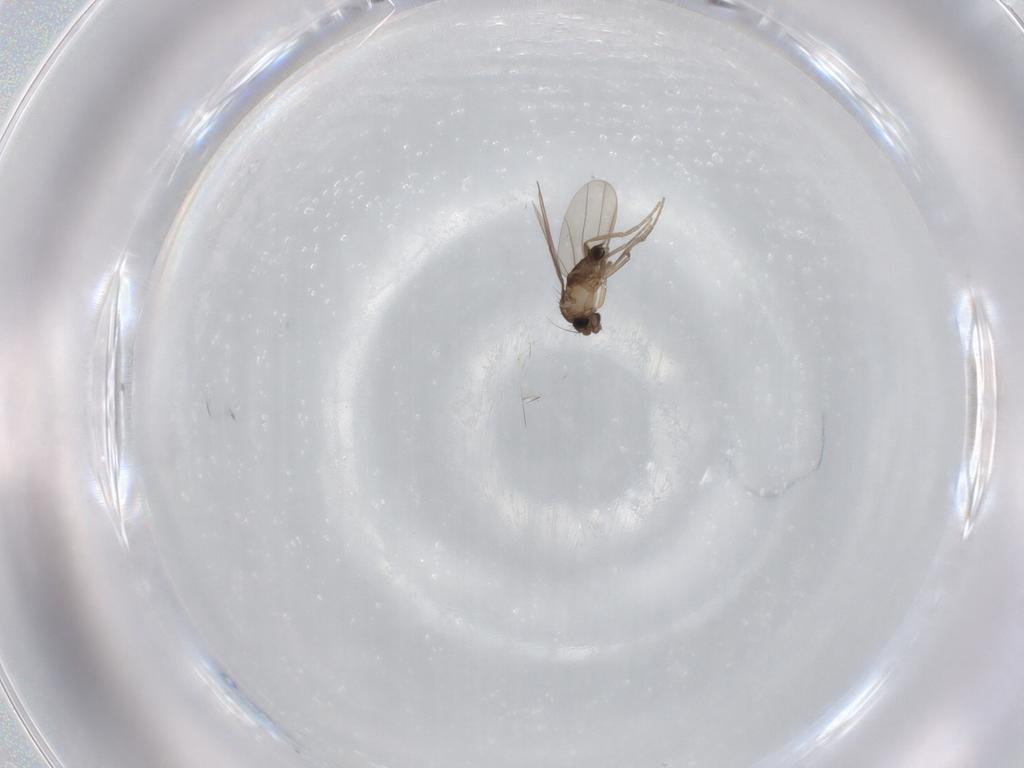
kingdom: Animalia
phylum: Arthropoda
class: Insecta
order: Diptera
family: Phoridae
